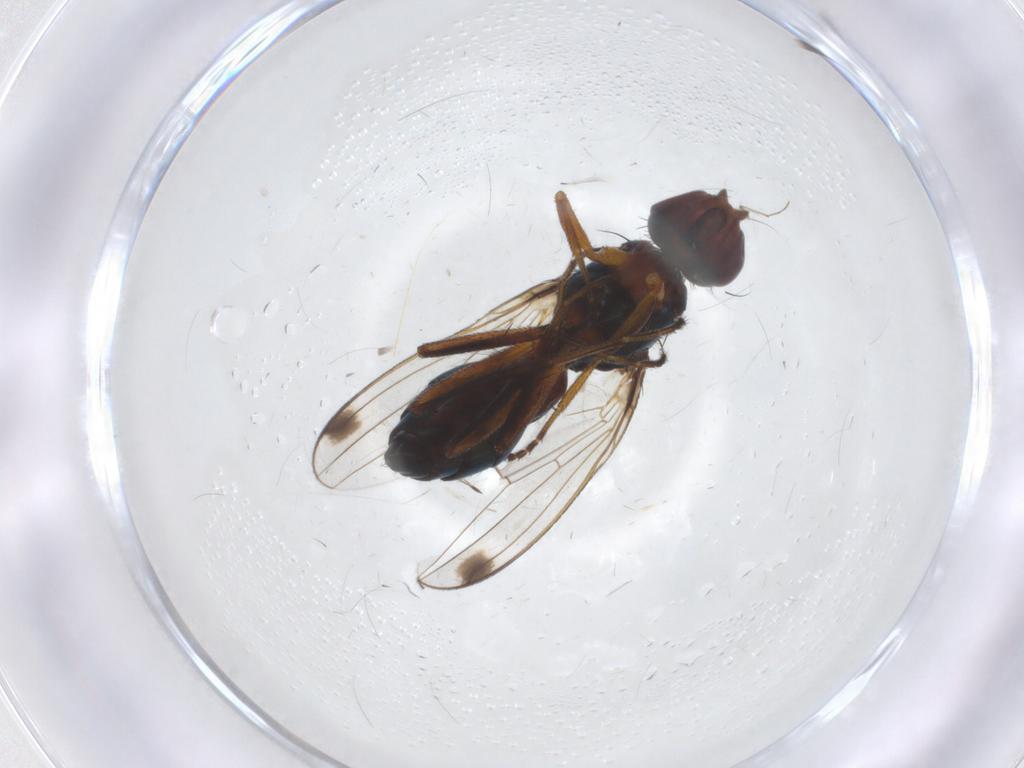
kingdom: Animalia
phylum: Arthropoda
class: Insecta
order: Diptera
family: Sepsidae
